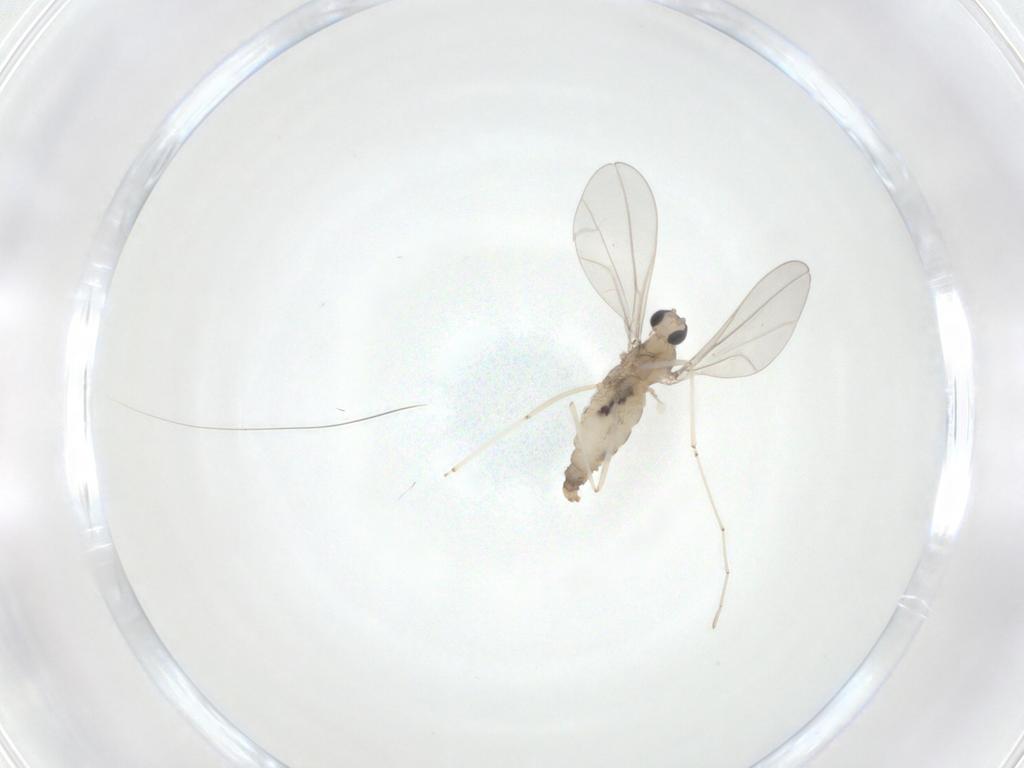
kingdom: Animalia
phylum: Arthropoda
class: Insecta
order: Diptera
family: Cecidomyiidae
